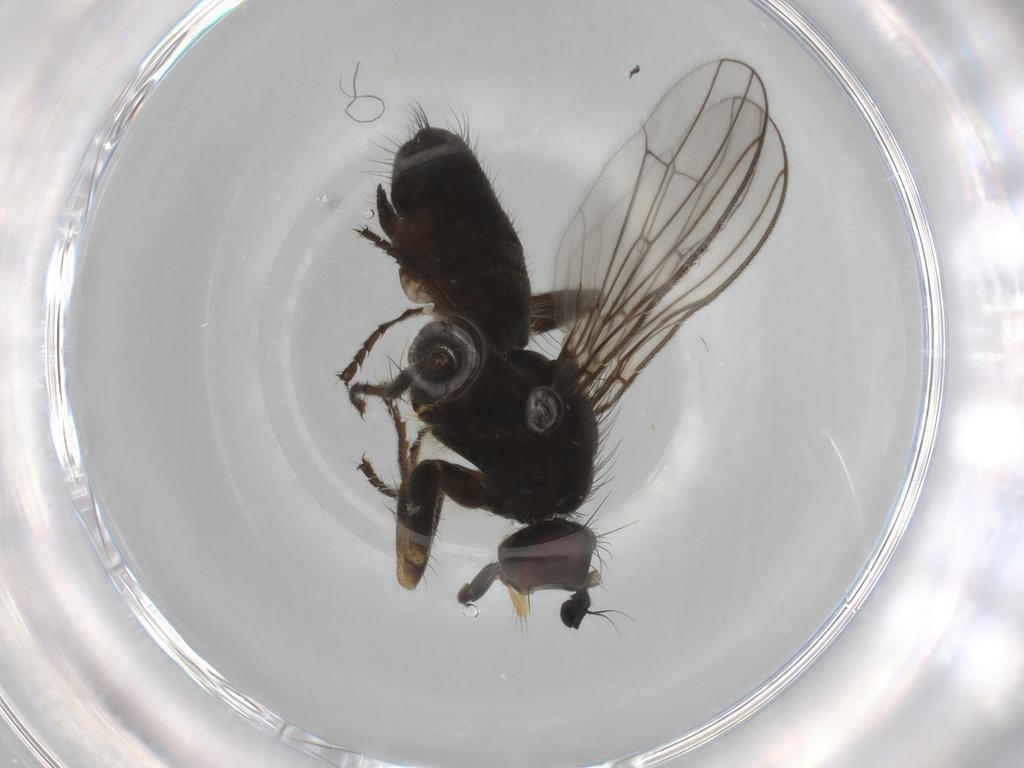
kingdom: Animalia
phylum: Arthropoda
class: Insecta
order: Diptera
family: Scathophagidae
